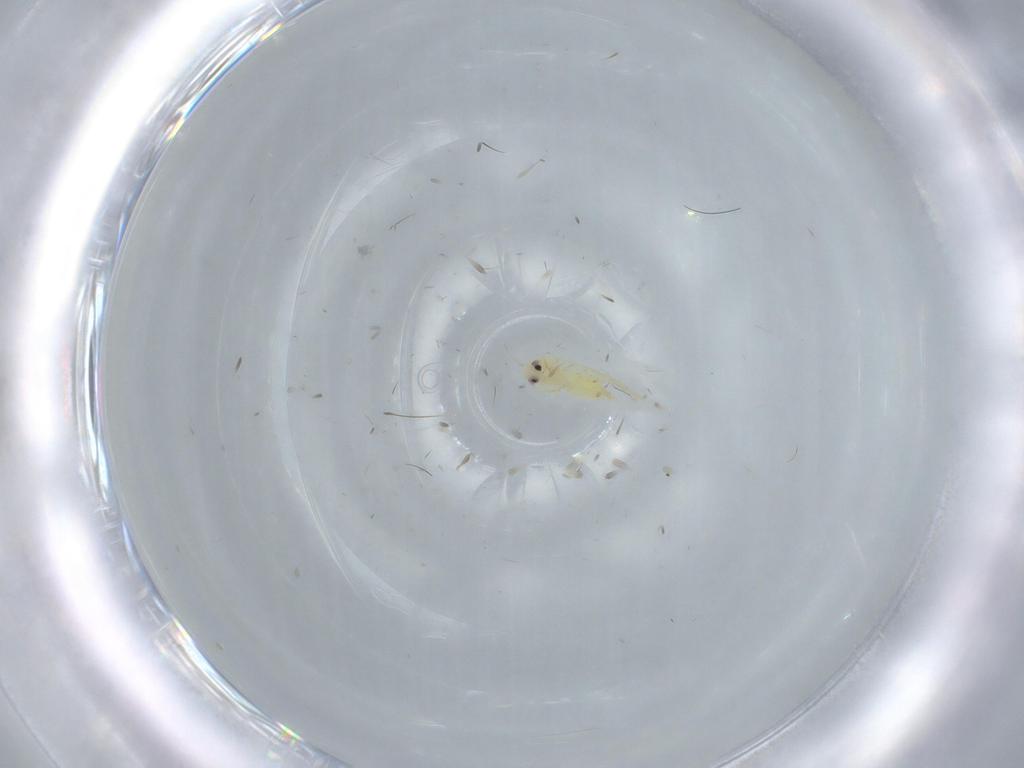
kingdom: Animalia
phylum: Arthropoda
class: Insecta
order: Hemiptera
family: Aleyrodidae
